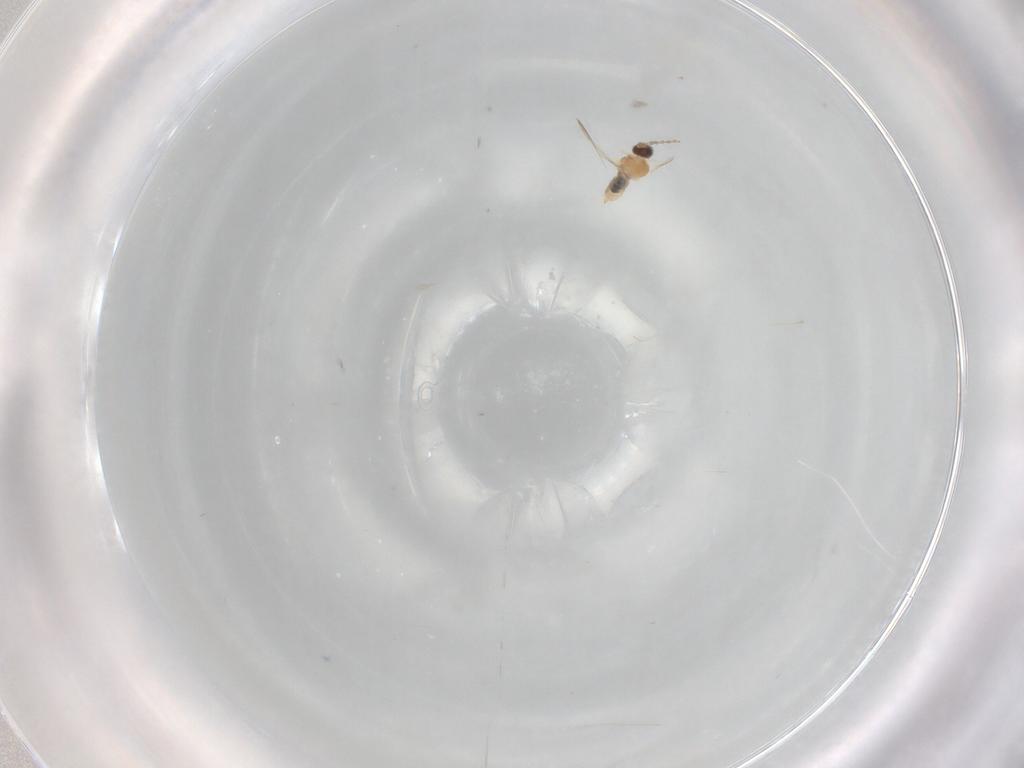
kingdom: Animalia
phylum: Arthropoda
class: Insecta
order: Diptera
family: Cecidomyiidae
